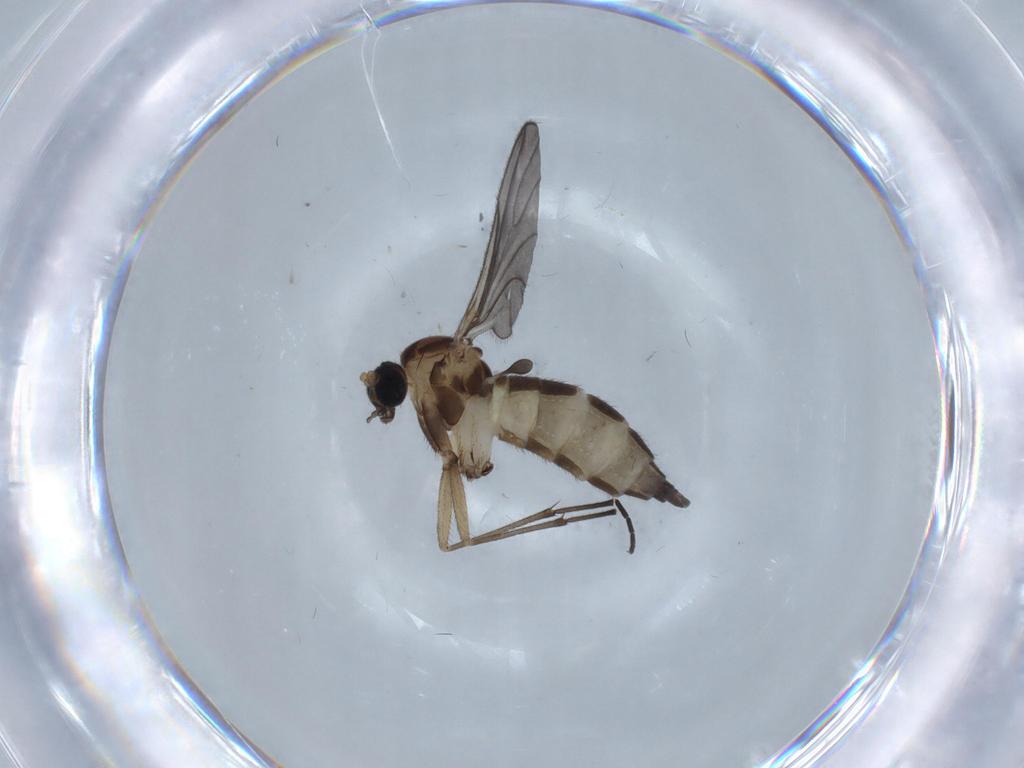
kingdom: Animalia
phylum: Arthropoda
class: Insecta
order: Diptera
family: Sciaridae
